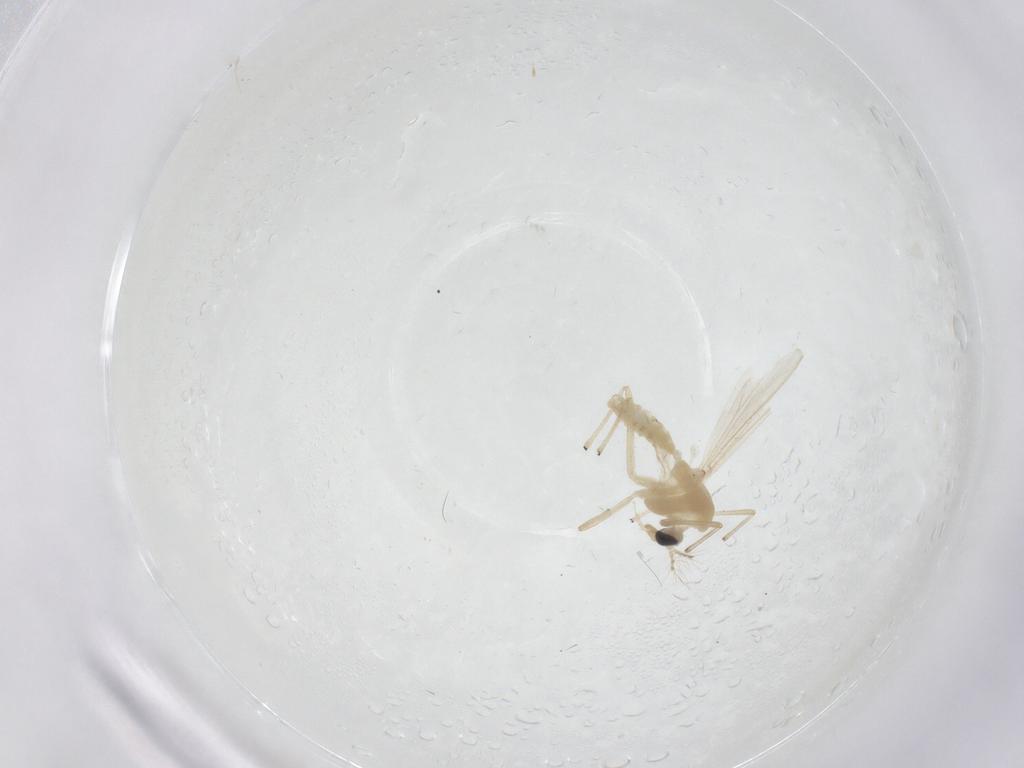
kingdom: Animalia
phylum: Arthropoda
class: Insecta
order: Diptera
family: Chironomidae
